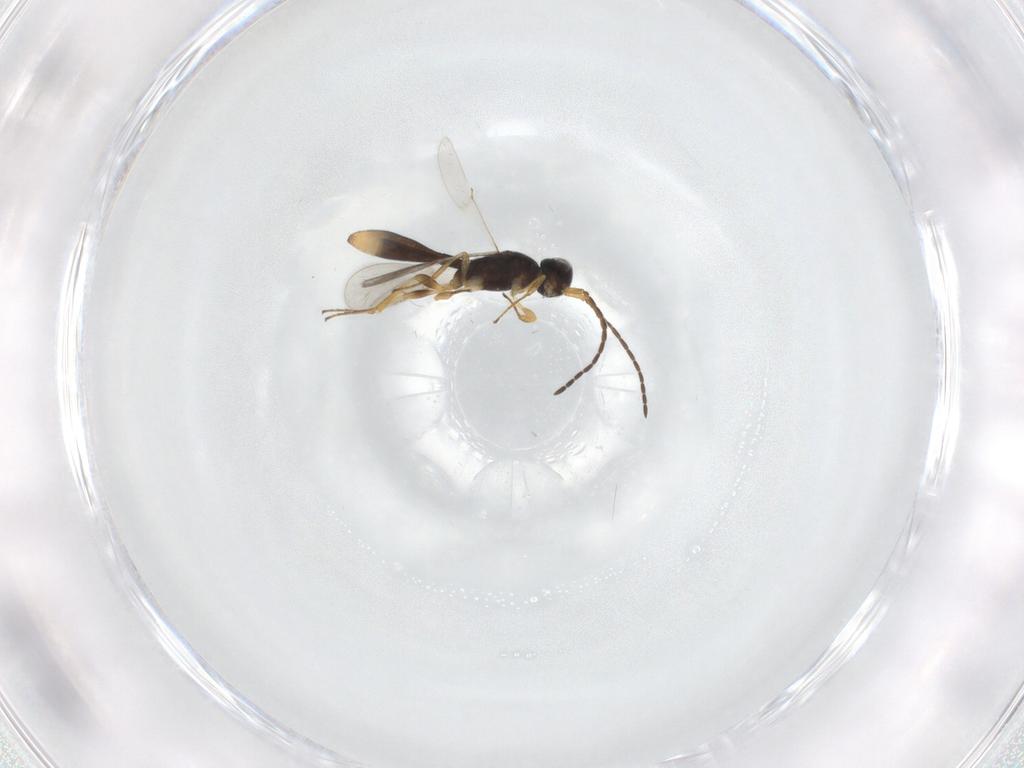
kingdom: Animalia
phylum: Arthropoda
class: Insecta
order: Hymenoptera
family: Scelionidae
